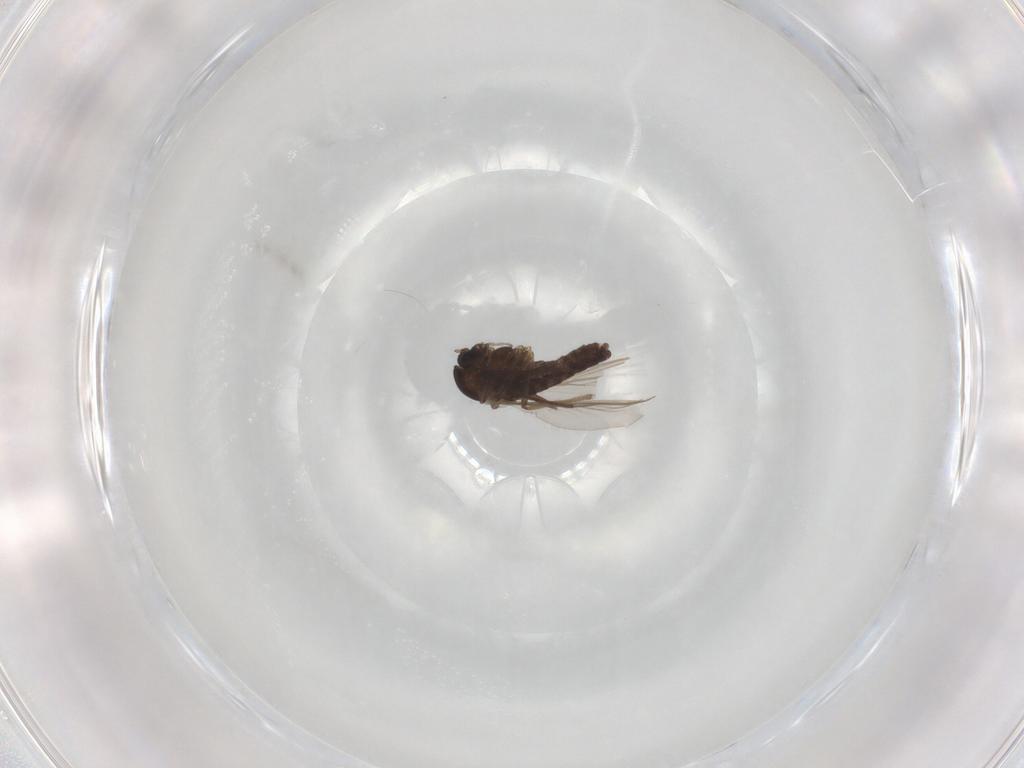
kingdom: Animalia
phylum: Arthropoda
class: Insecta
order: Diptera
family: Chironomidae
